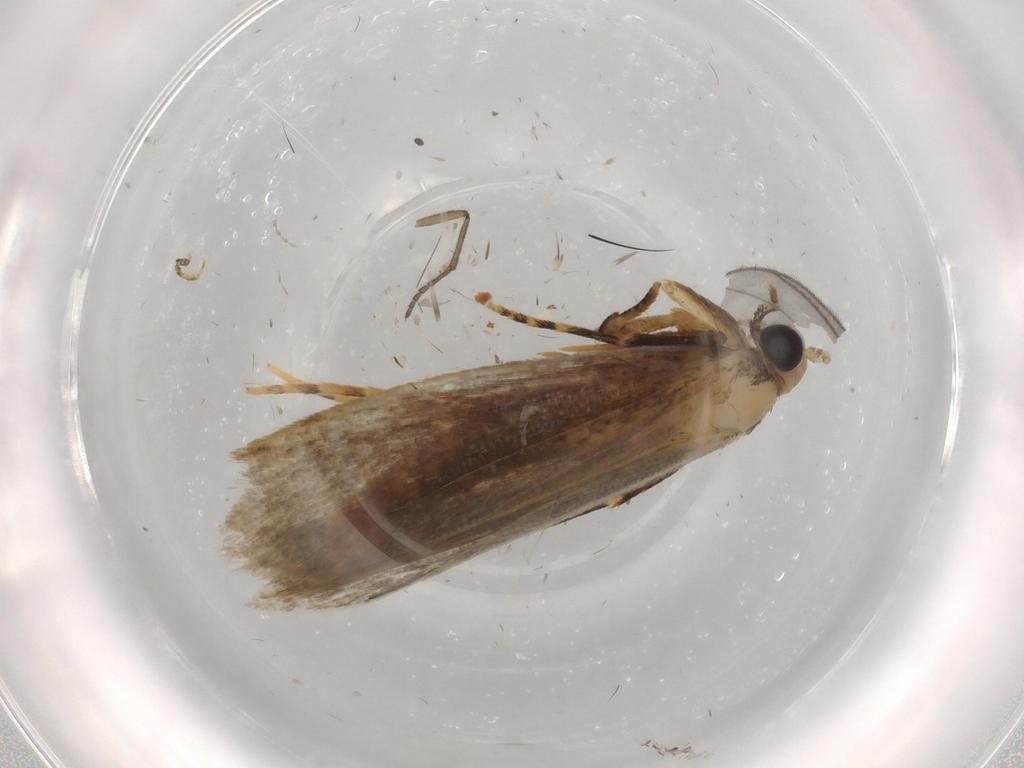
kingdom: Animalia
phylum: Arthropoda
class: Insecta
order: Lepidoptera
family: Tineidae
